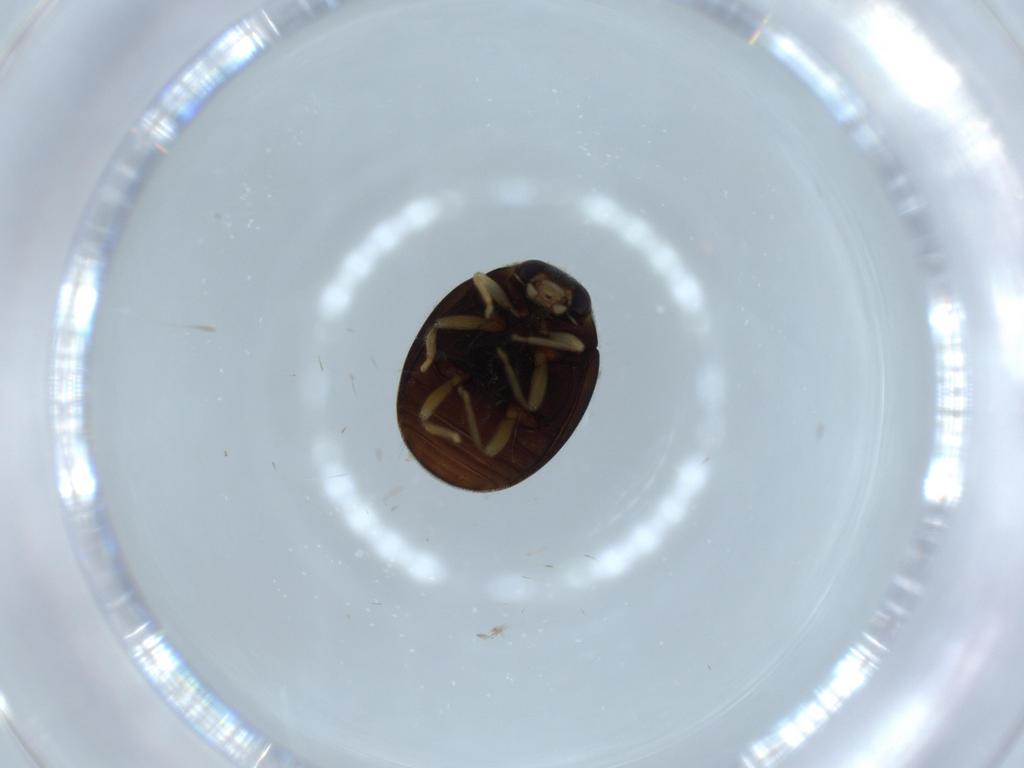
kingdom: Animalia
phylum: Arthropoda
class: Insecta
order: Coleoptera
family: Coccinellidae
